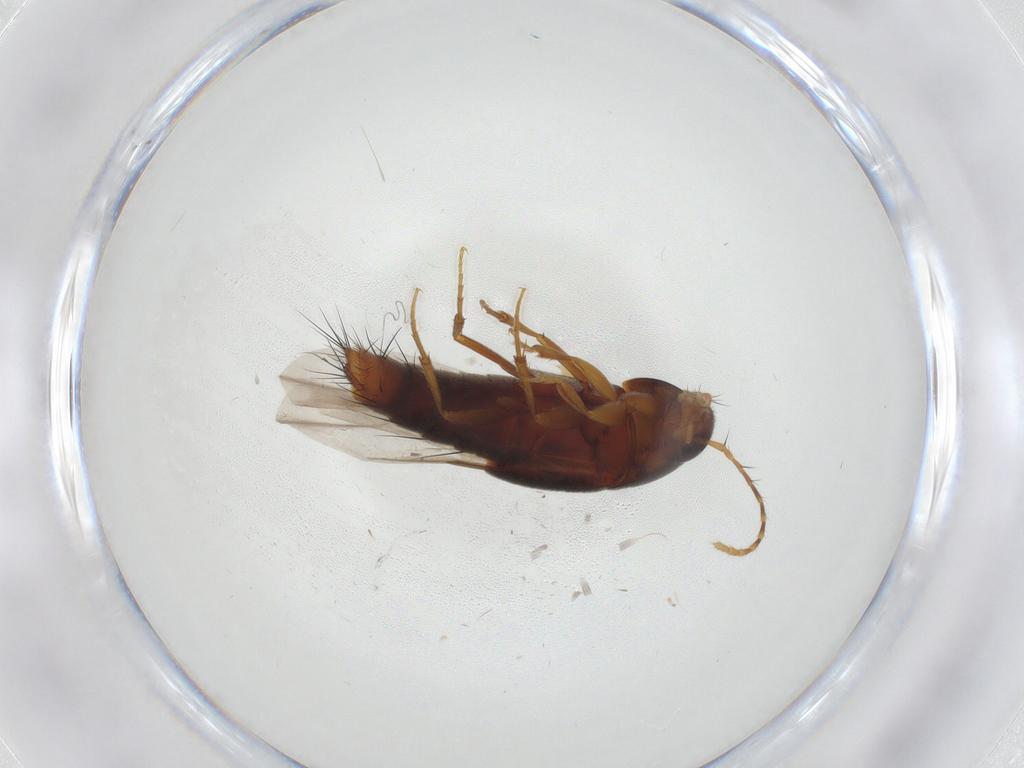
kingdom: Animalia
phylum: Arthropoda
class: Insecta
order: Coleoptera
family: Staphylinidae
